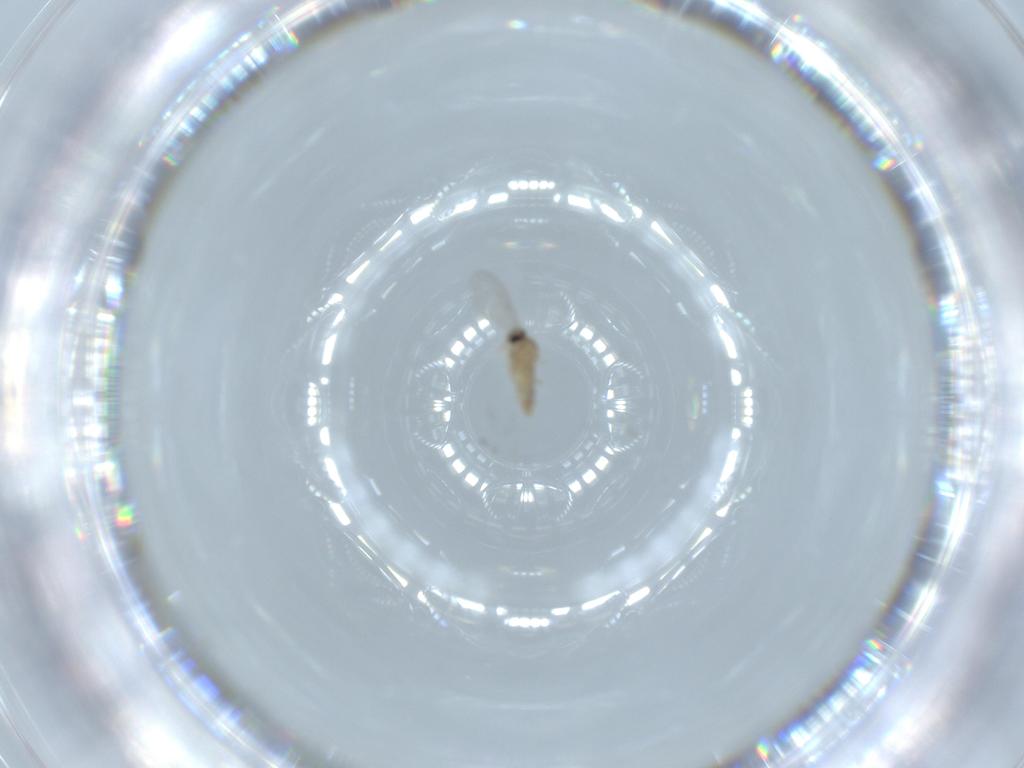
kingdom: Animalia
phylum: Arthropoda
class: Insecta
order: Diptera
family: Cecidomyiidae
